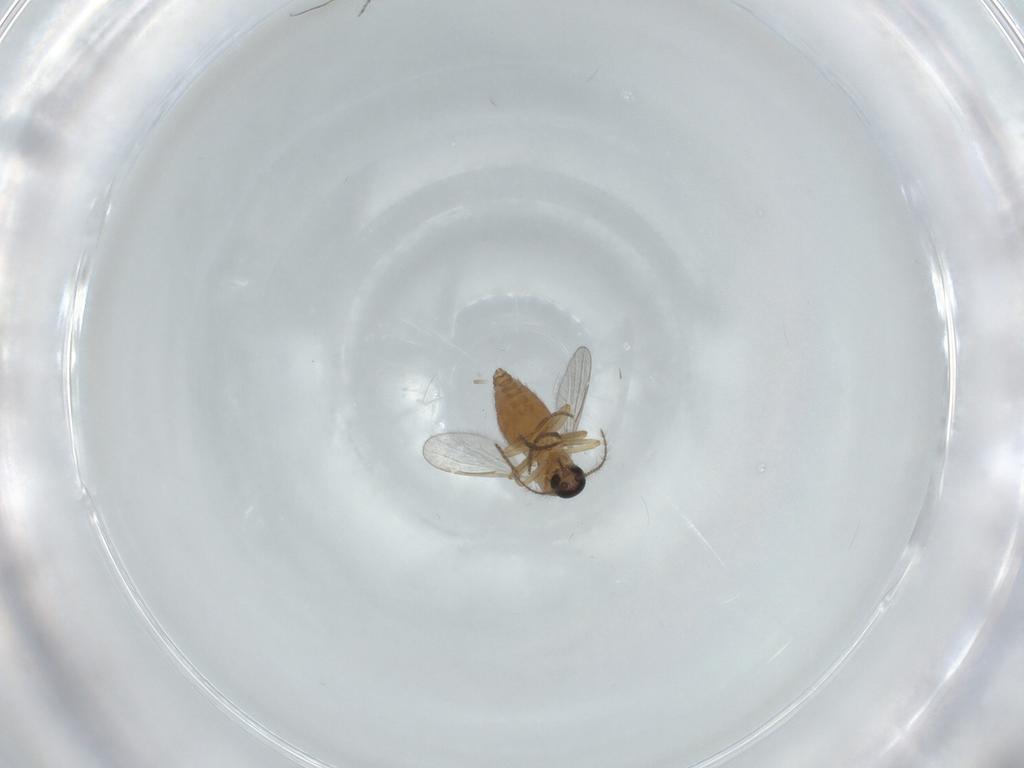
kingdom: Animalia
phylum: Arthropoda
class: Insecta
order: Diptera
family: Ceratopogonidae
